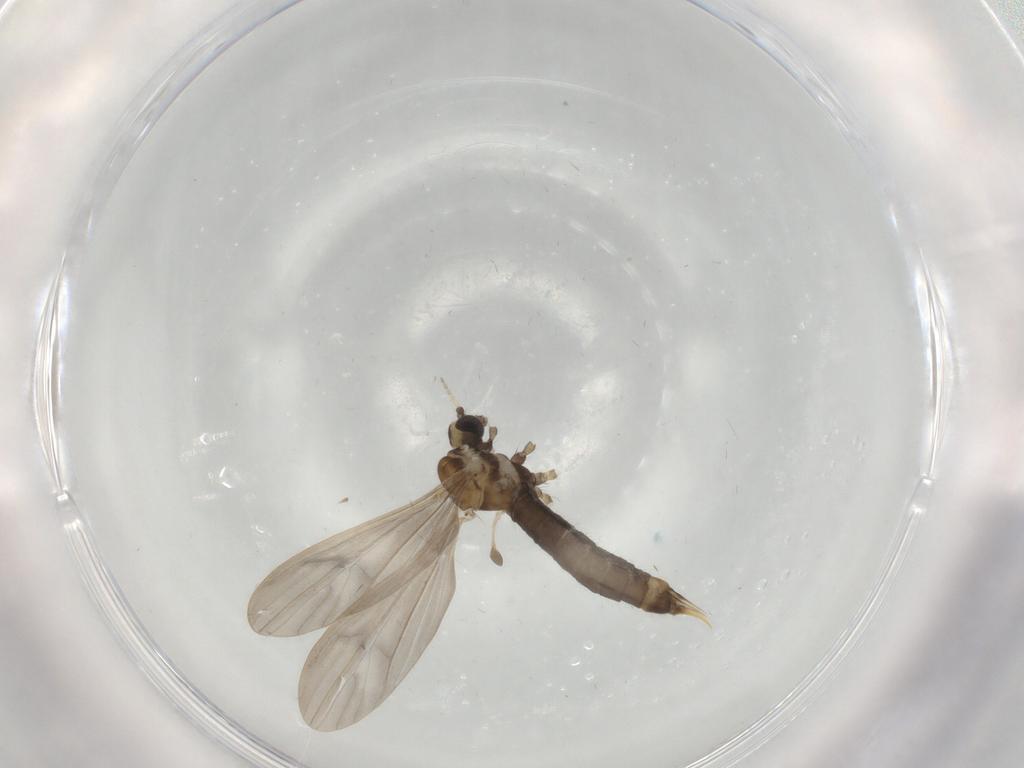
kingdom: Animalia
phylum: Arthropoda
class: Insecta
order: Diptera
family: Limoniidae
